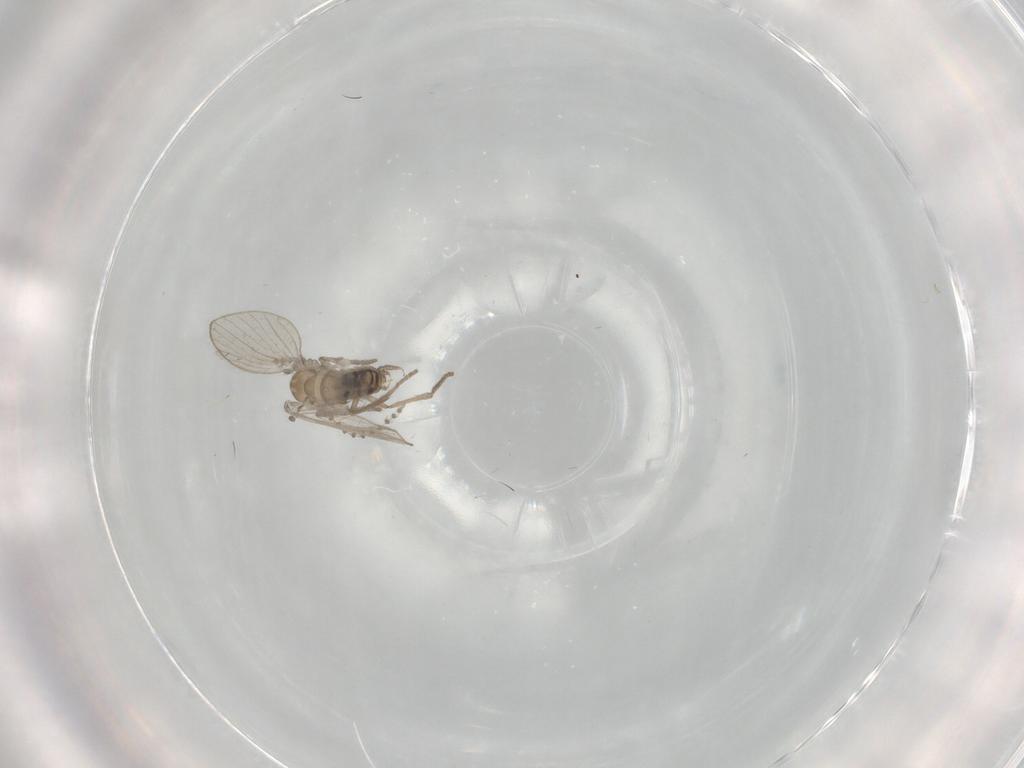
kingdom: Animalia
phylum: Arthropoda
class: Insecta
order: Diptera
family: Psychodidae
